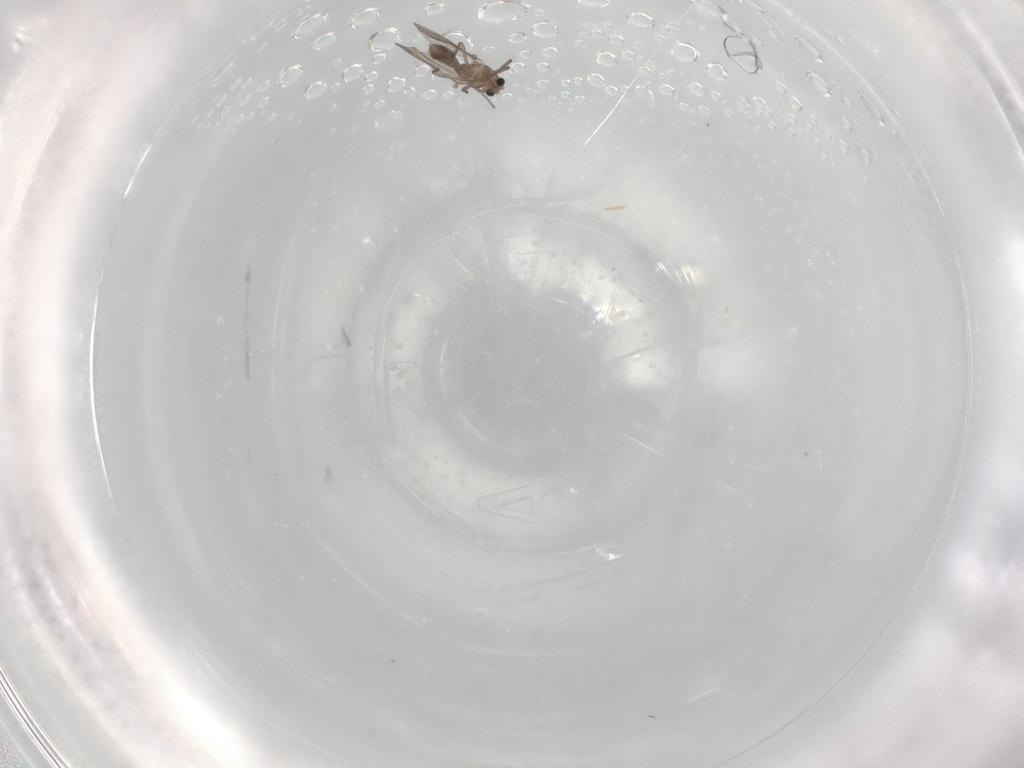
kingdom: Animalia
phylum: Arthropoda
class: Insecta
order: Diptera
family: Chironomidae
